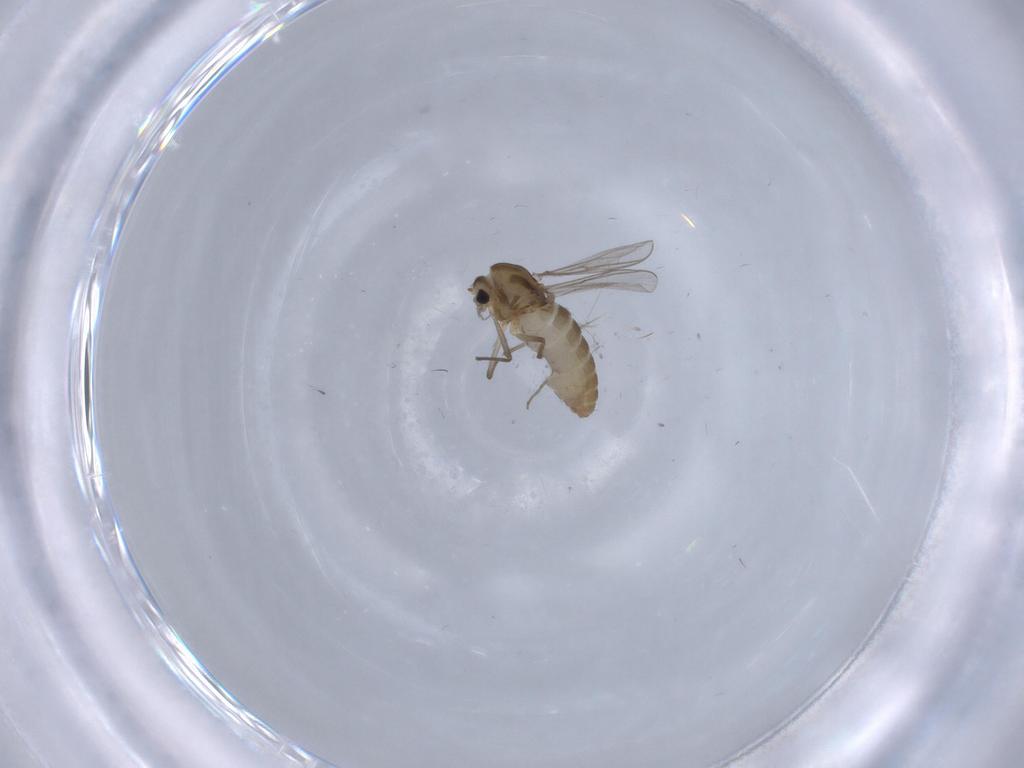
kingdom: Animalia
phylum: Arthropoda
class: Insecta
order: Diptera
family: Chironomidae
